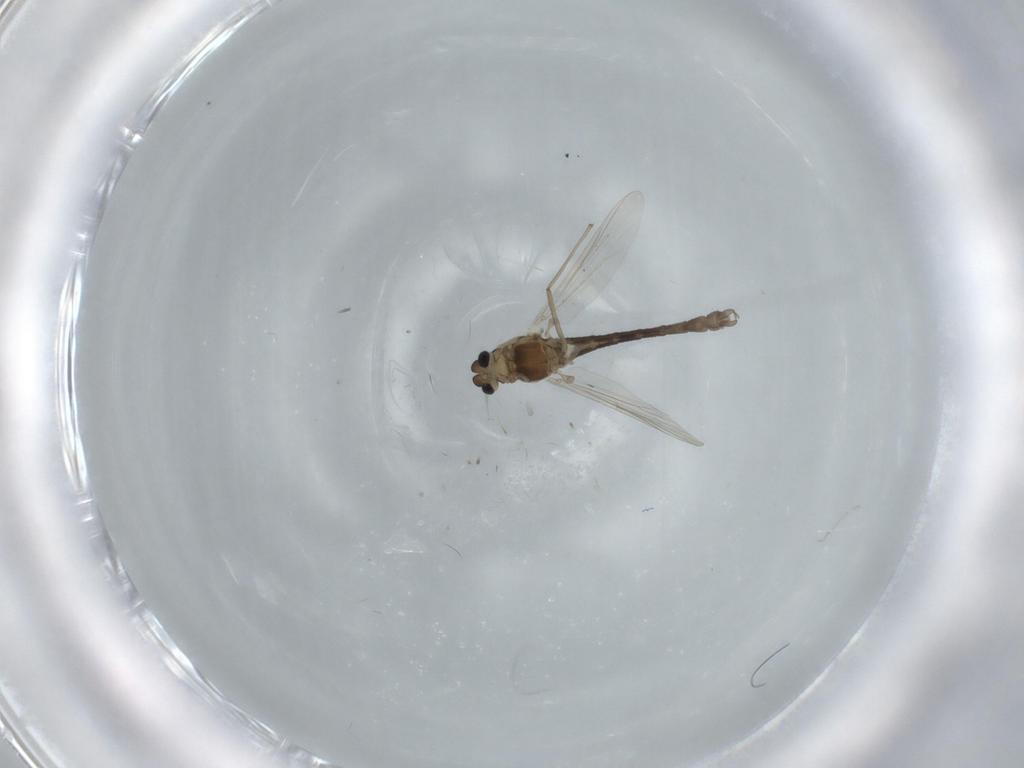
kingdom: Animalia
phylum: Arthropoda
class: Insecta
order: Diptera
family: Chironomidae
